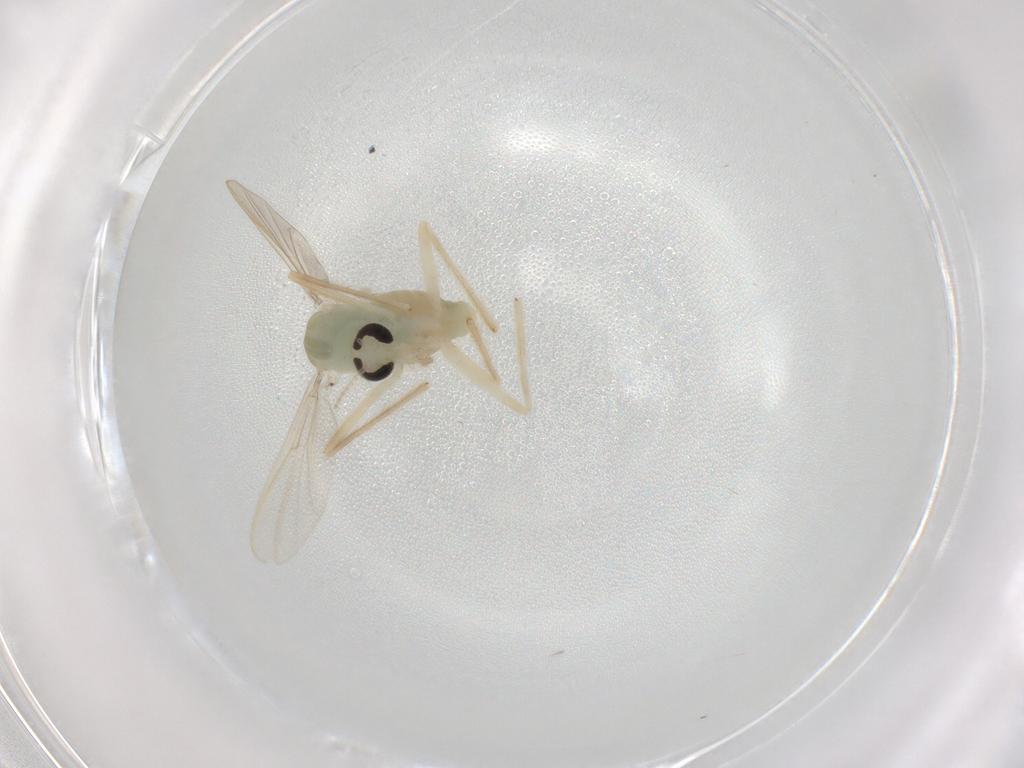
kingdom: Animalia
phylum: Arthropoda
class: Insecta
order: Diptera
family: Chironomidae
